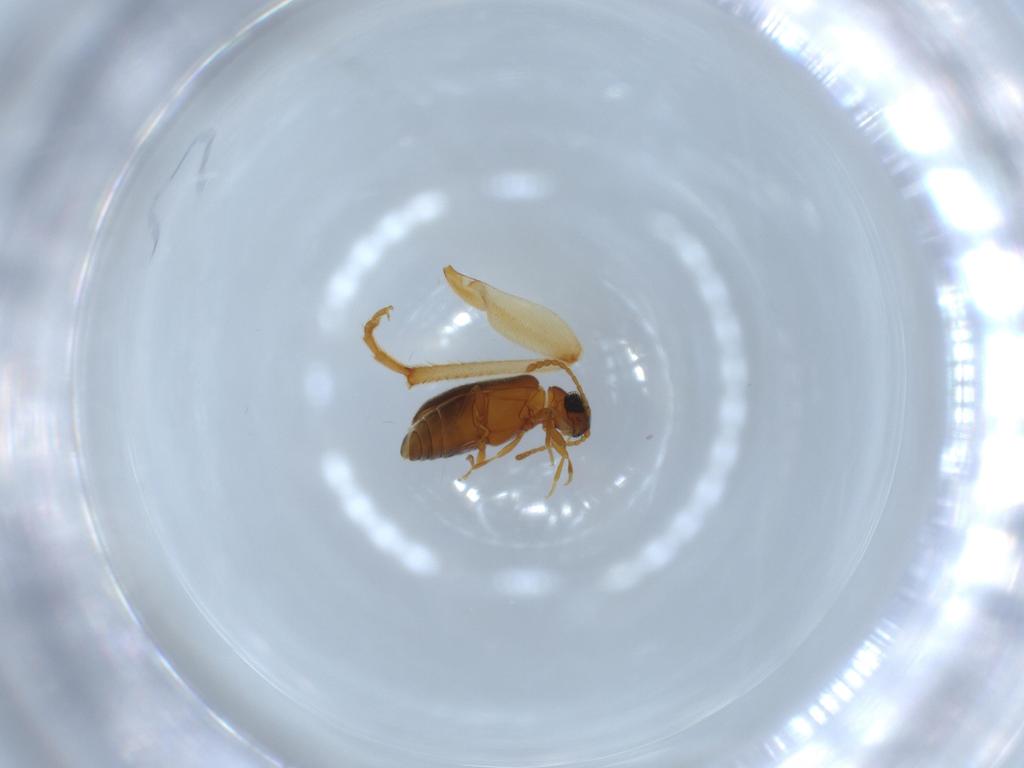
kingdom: Animalia
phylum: Arthropoda
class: Insecta
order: Coleoptera
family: Elateridae
